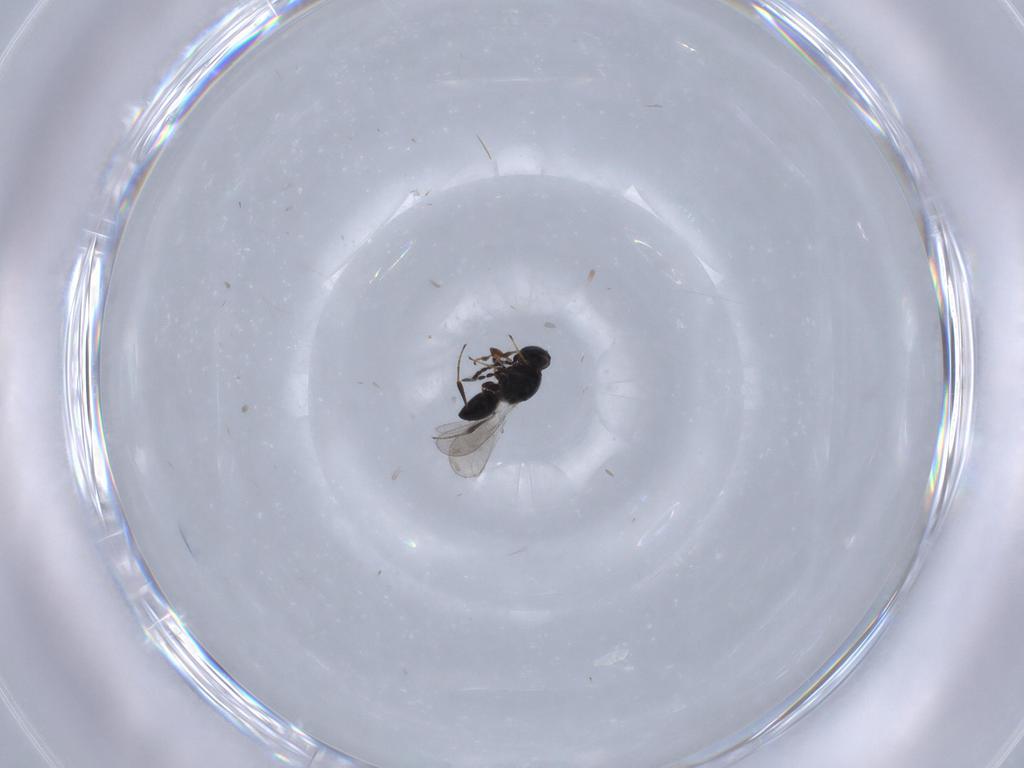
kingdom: Animalia
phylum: Arthropoda
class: Insecta
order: Hymenoptera
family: Platygastridae
